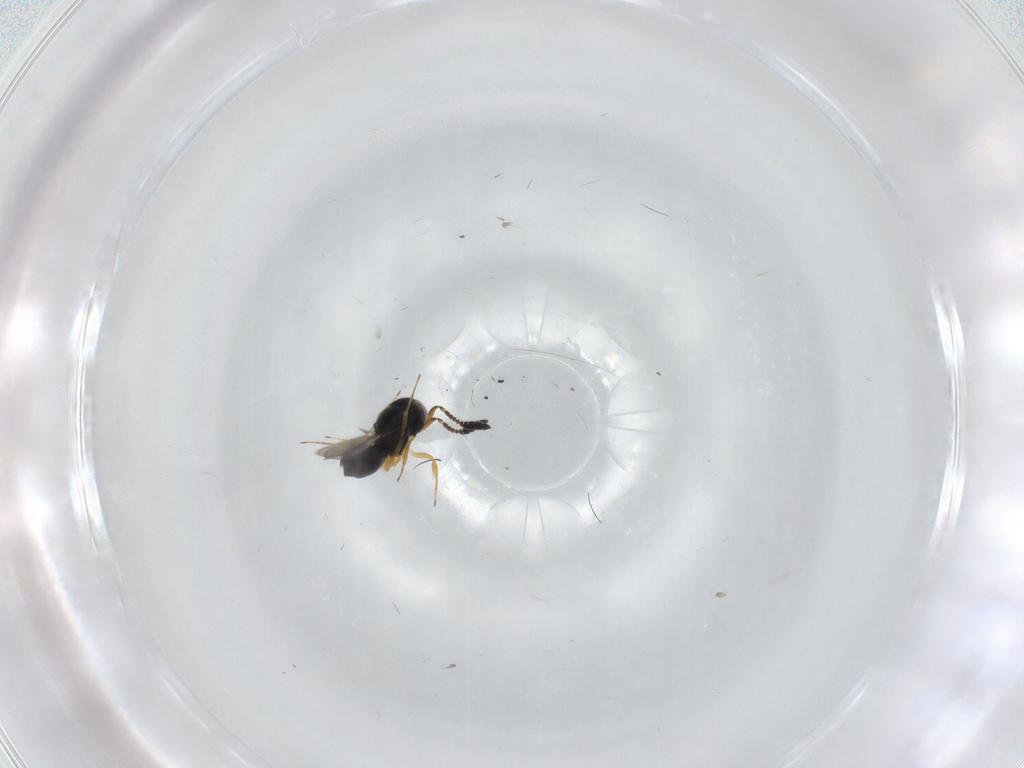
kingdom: Animalia
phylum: Arthropoda
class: Insecta
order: Hymenoptera
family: Scelionidae
